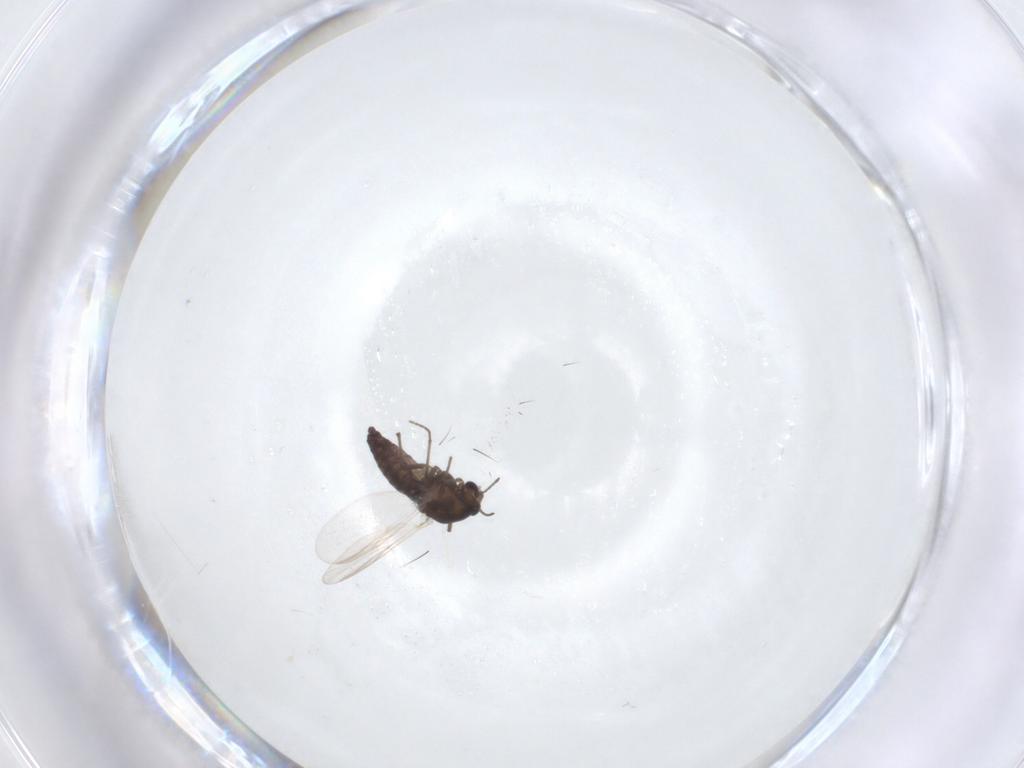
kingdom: Animalia
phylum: Arthropoda
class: Insecta
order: Diptera
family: Chironomidae
